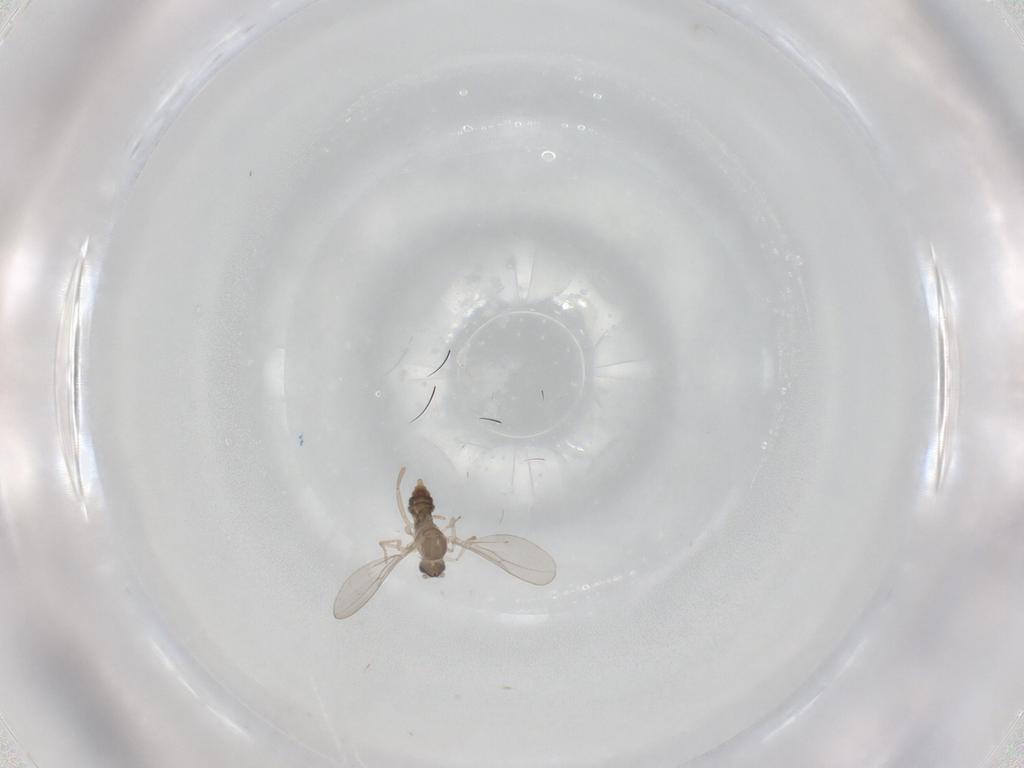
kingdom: Animalia
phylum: Arthropoda
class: Insecta
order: Diptera
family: Cecidomyiidae
